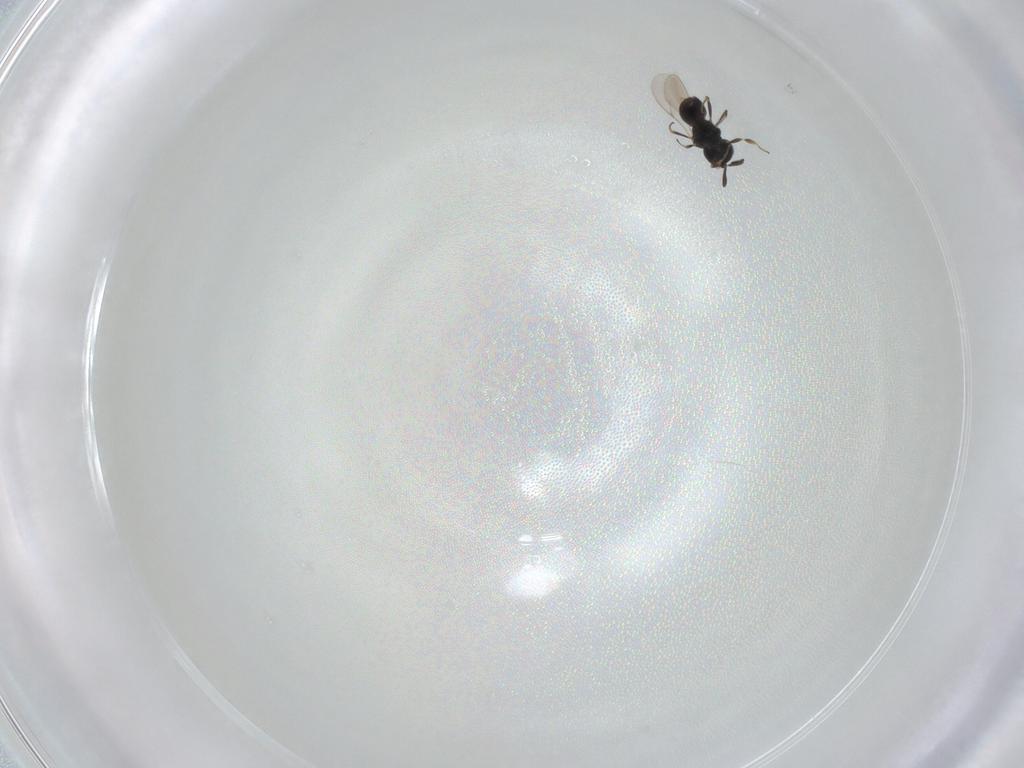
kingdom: Animalia
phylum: Arthropoda
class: Insecta
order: Hymenoptera
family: Scelionidae
